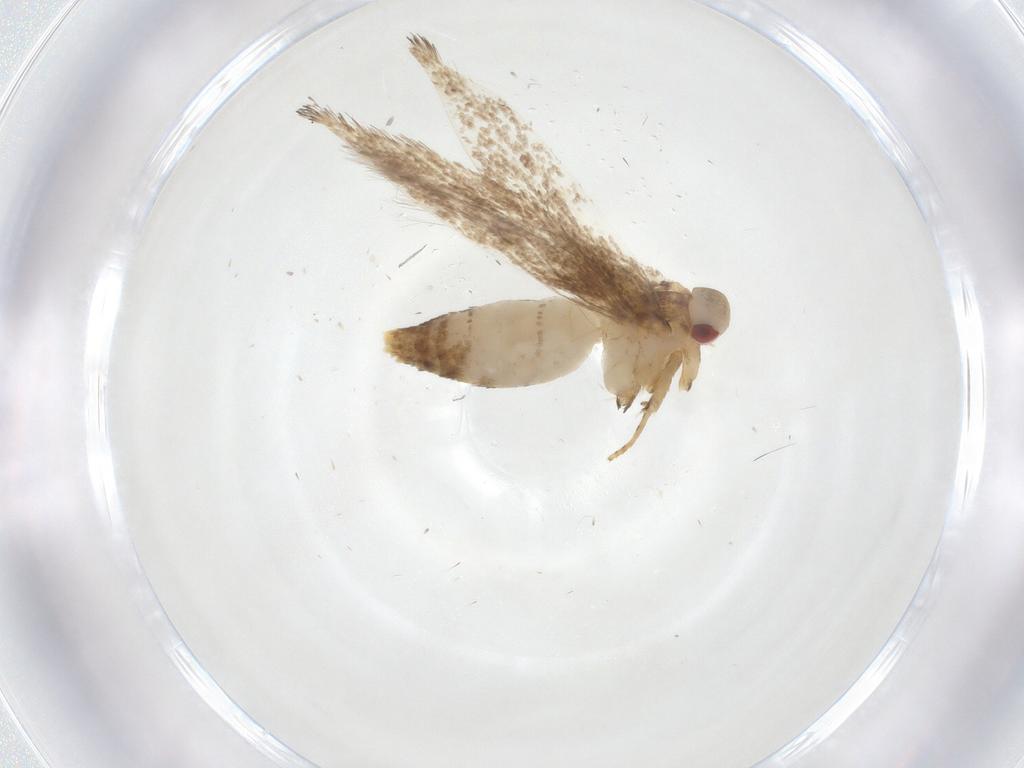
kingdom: Animalia
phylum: Arthropoda
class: Insecta
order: Lepidoptera
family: Cosmopterigidae
